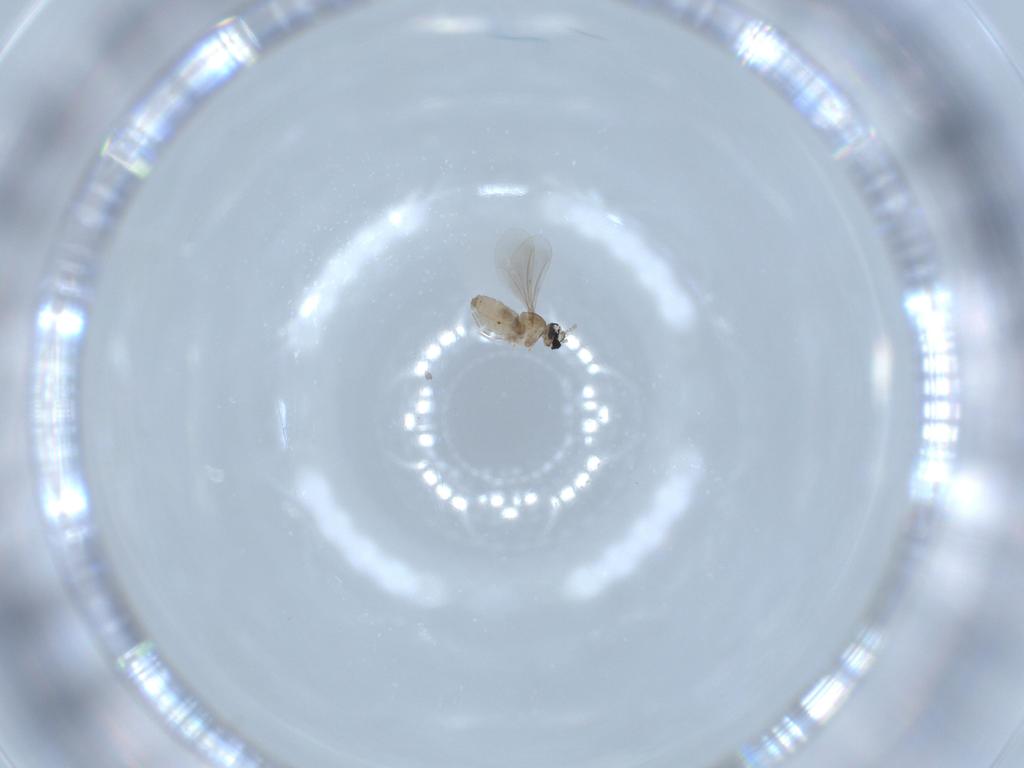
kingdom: Animalia
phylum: Arthropoda
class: Insecta
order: Diptera
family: Cecidomyiidae
